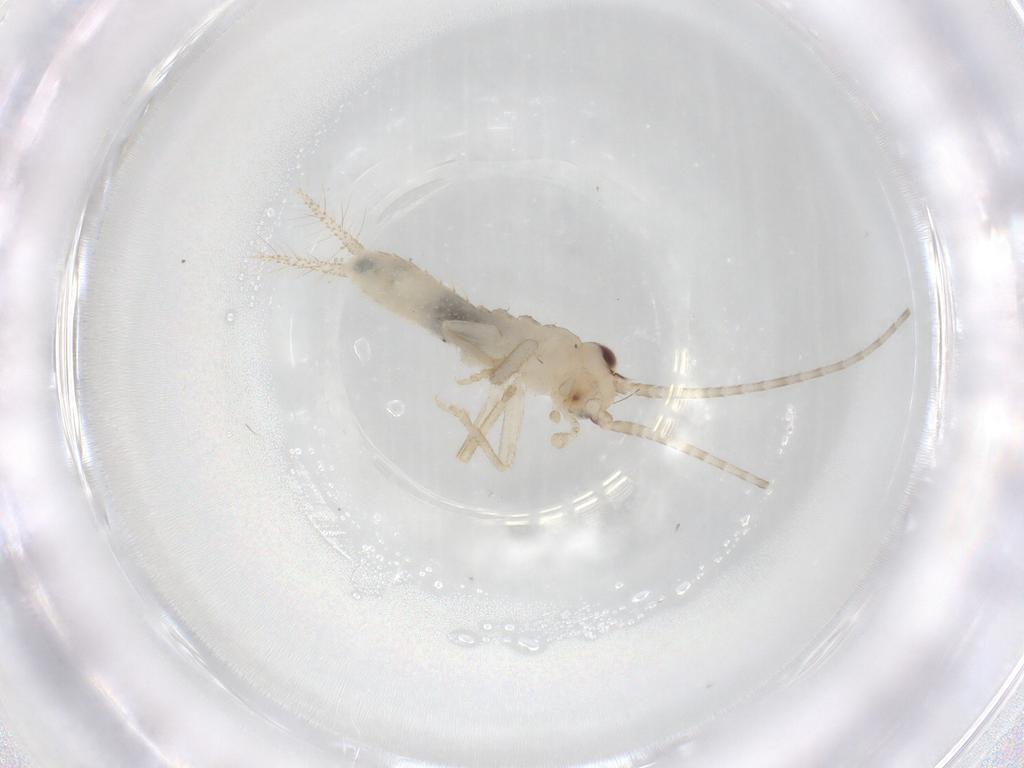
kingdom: Animalia
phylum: Arthropoda
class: Insecta
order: Orthoptera
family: Gryllidae
